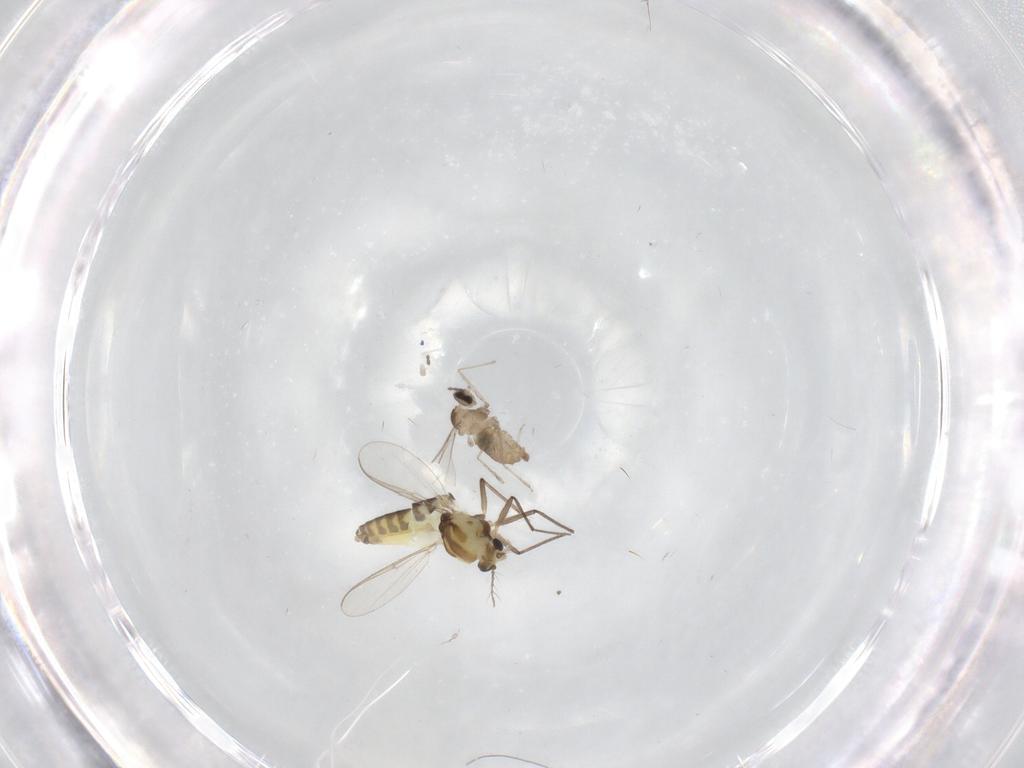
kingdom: Animalia
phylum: Arthropoda
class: Insecta
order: Diptera
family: Chironomidae
